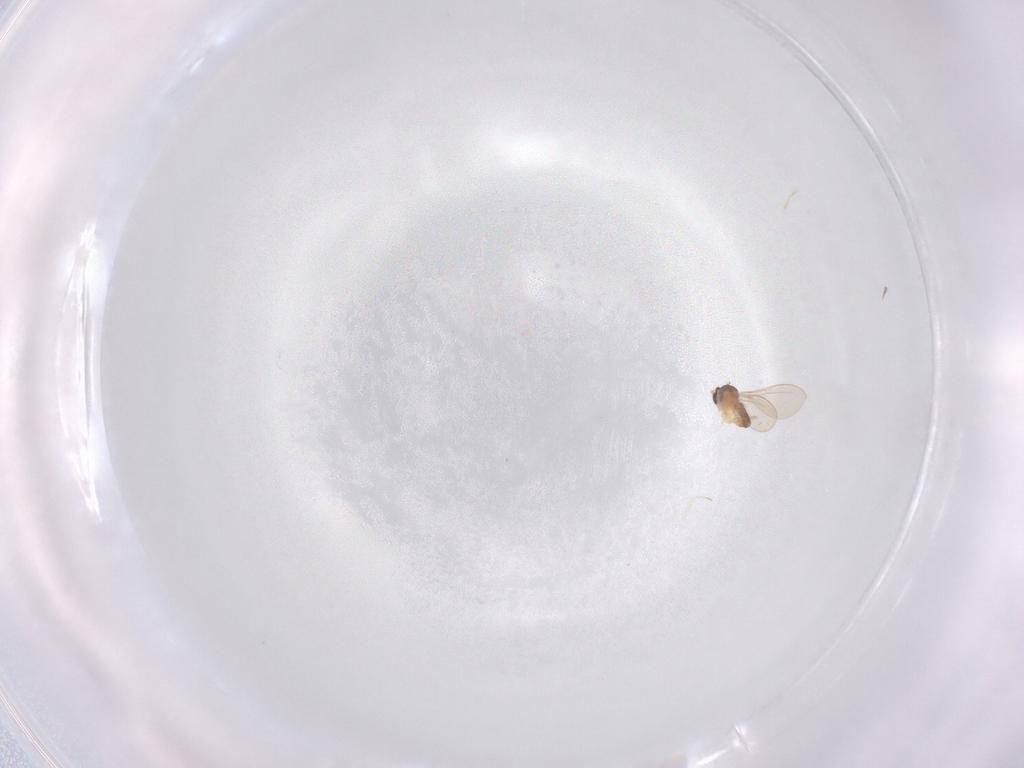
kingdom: Animalia
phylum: Arthropoda
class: Insecta
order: Diptera
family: Cecidomyiidae
